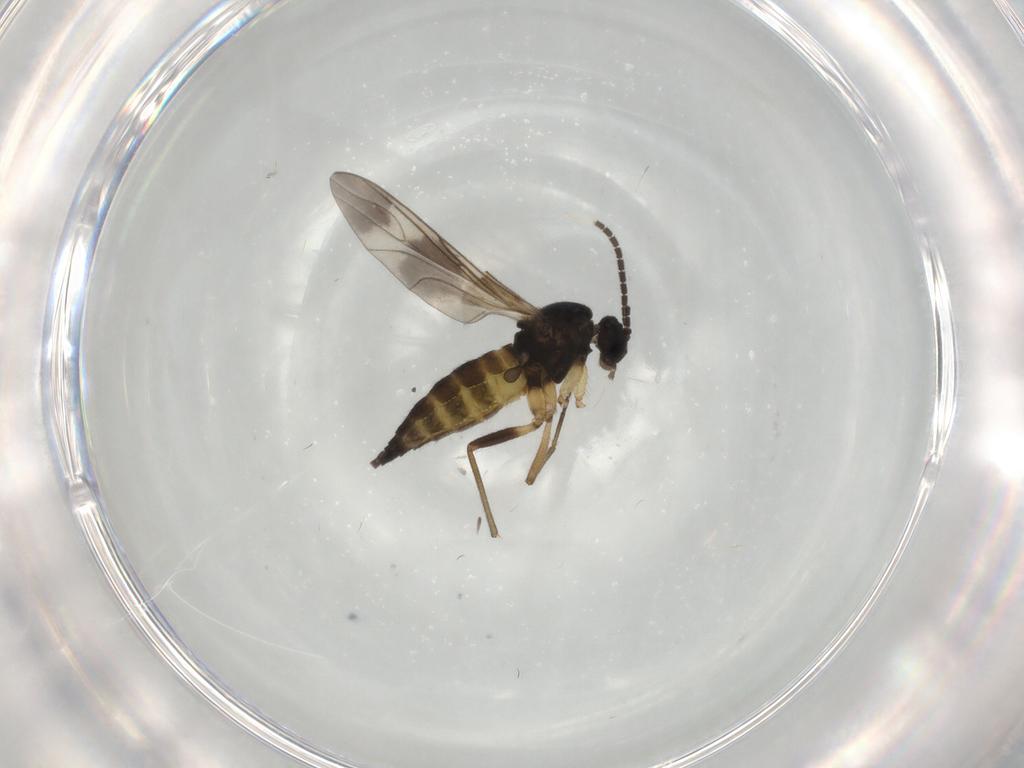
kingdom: Animalia
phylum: Arthropoda
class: Insecta
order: Diptera
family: Sciaridae
